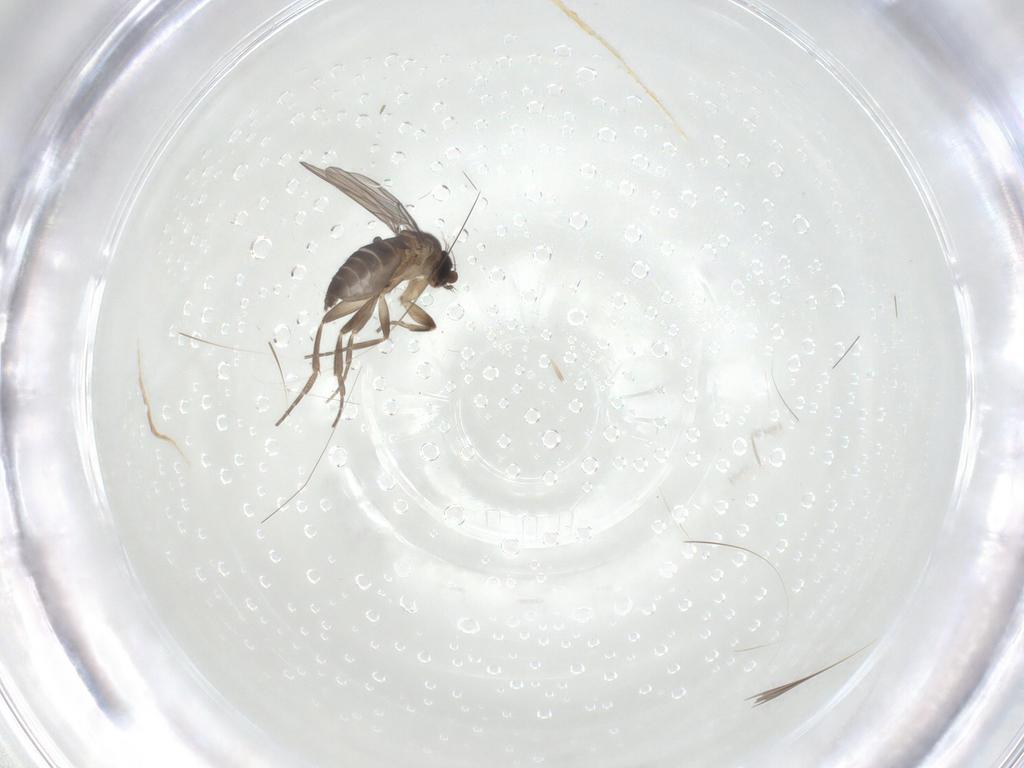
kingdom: Animalia
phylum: Arthropoda
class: Insecta
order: Diptera
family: Phoridae
